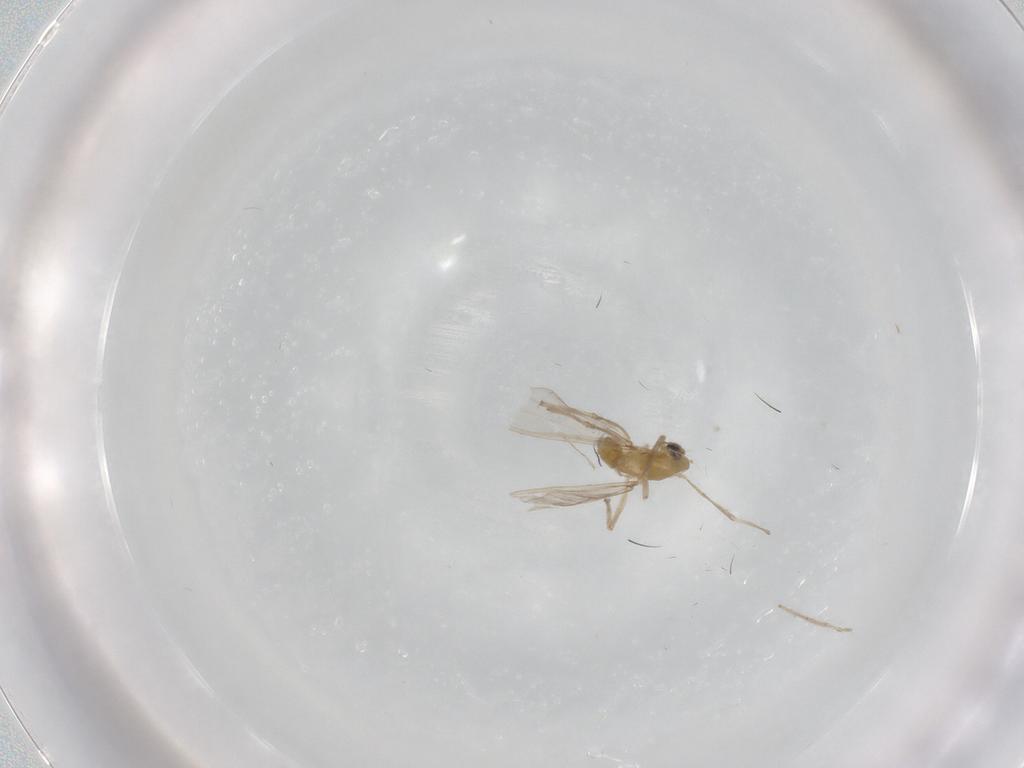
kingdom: Animalia
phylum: Arthropoda
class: Insecta
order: Diptera
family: Chironomidae
